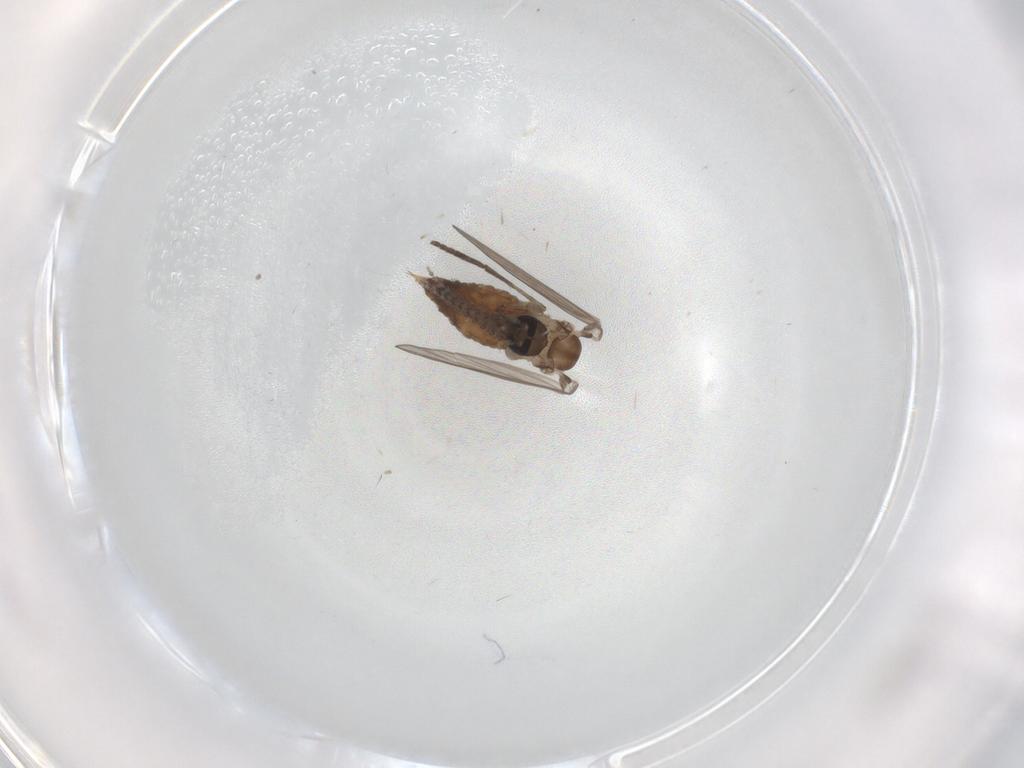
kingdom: Animalia
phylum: Arthropoda
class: Insecta
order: Diptera
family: Psychodidae
